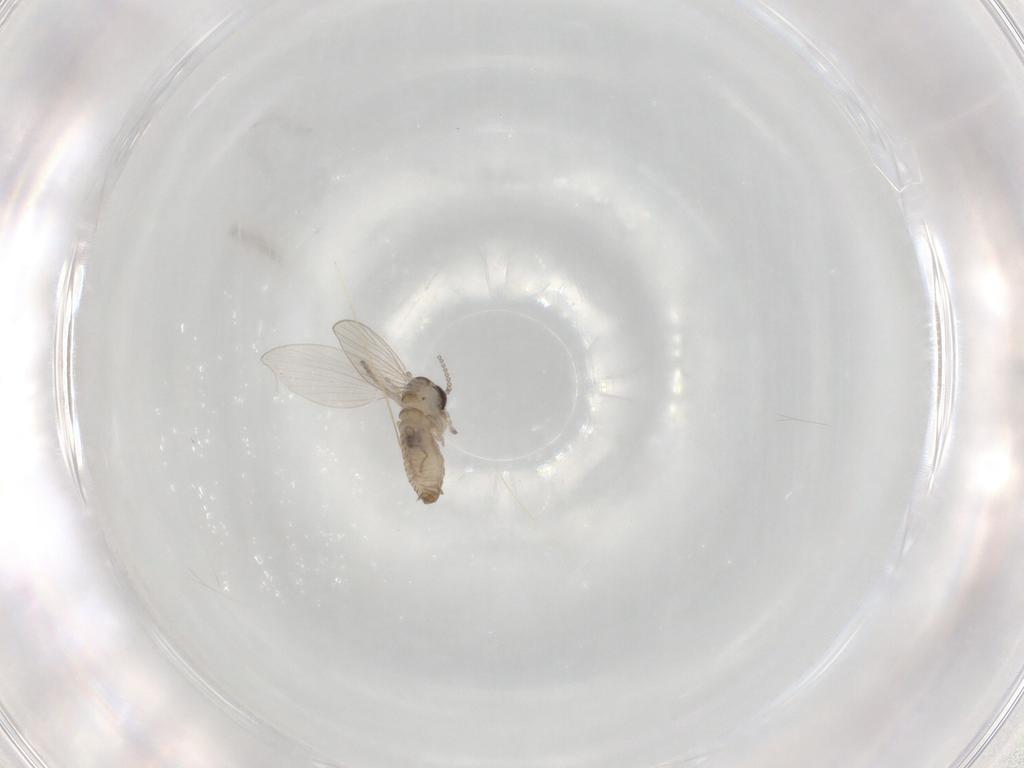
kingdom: Animalia
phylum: Arthropoda
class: Insecta
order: Diptera
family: Psychodidae
